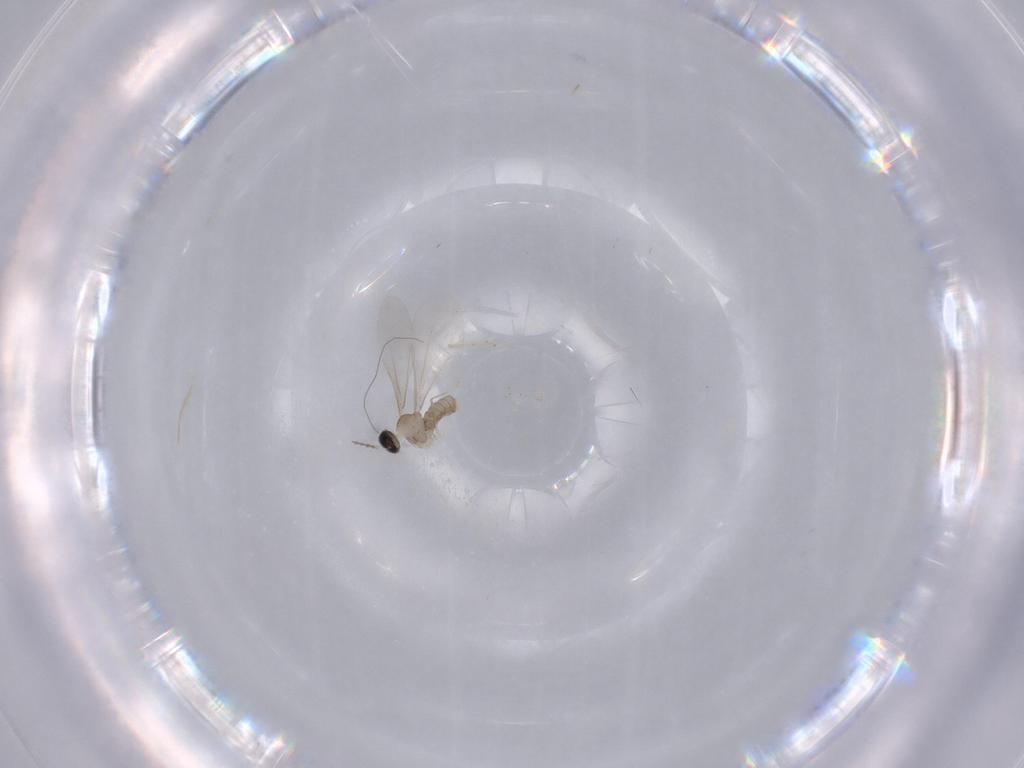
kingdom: Animalia
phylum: Arthropoda
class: Insecta
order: Diptera
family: Cecidomyiidae
